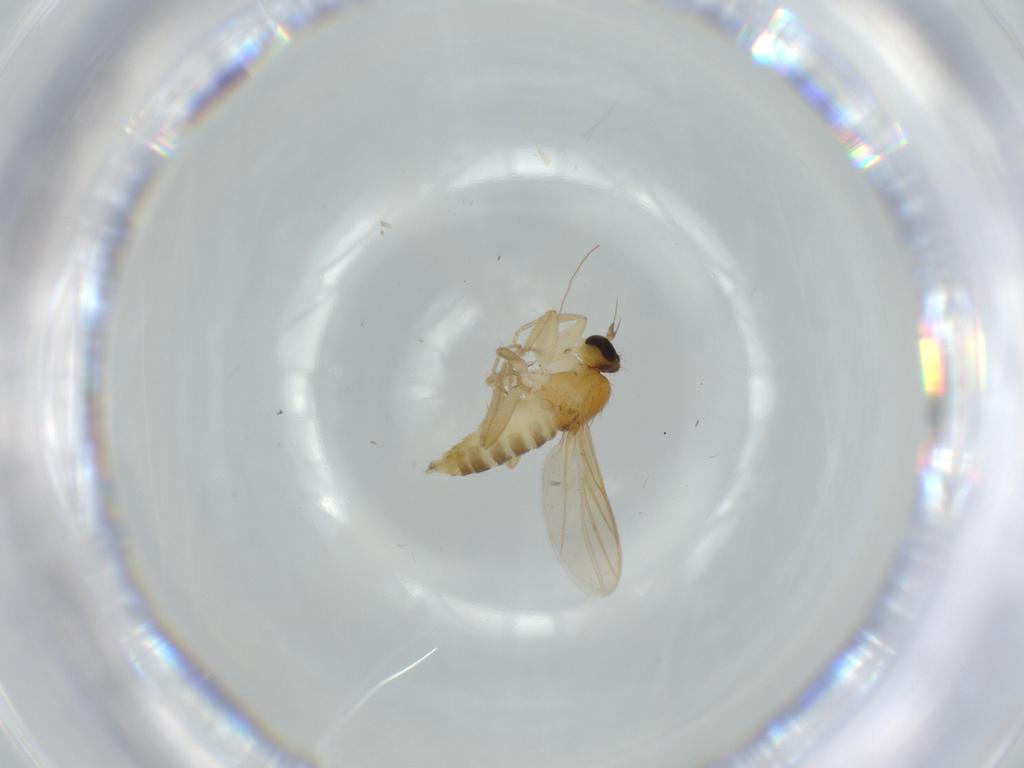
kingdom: Animalia
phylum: Arthropoda
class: Insecta
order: Diptera
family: Hybotidae
